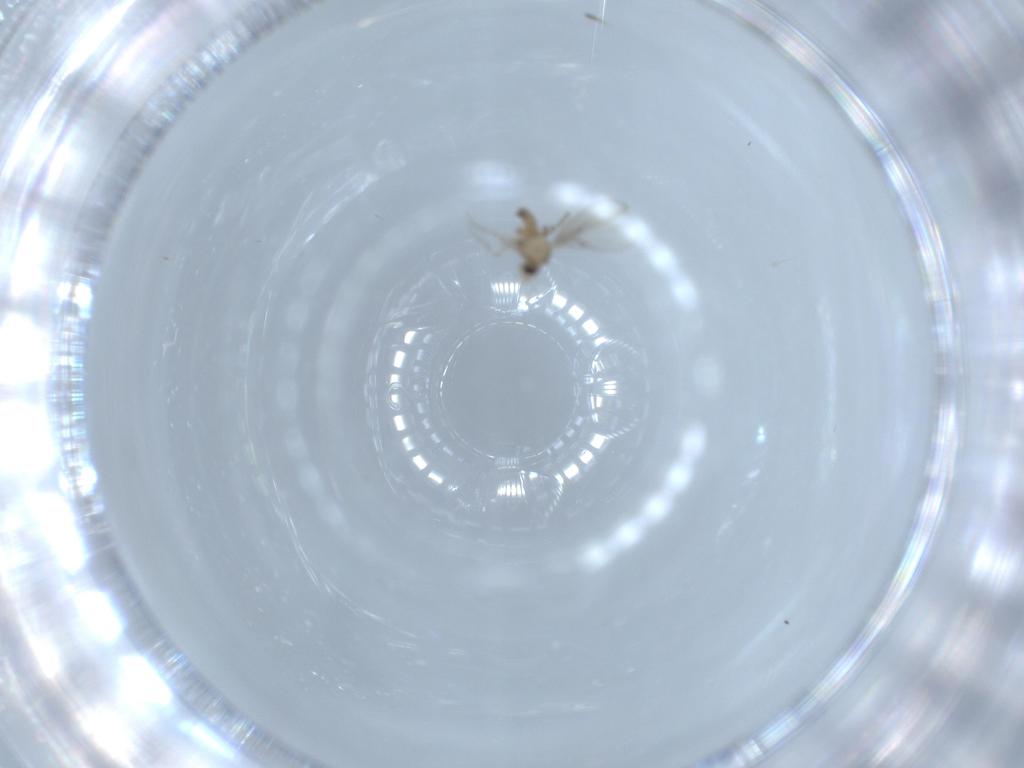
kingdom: Animalia
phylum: Arthropoda
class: Insecta
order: Diptera
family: Phoridae
